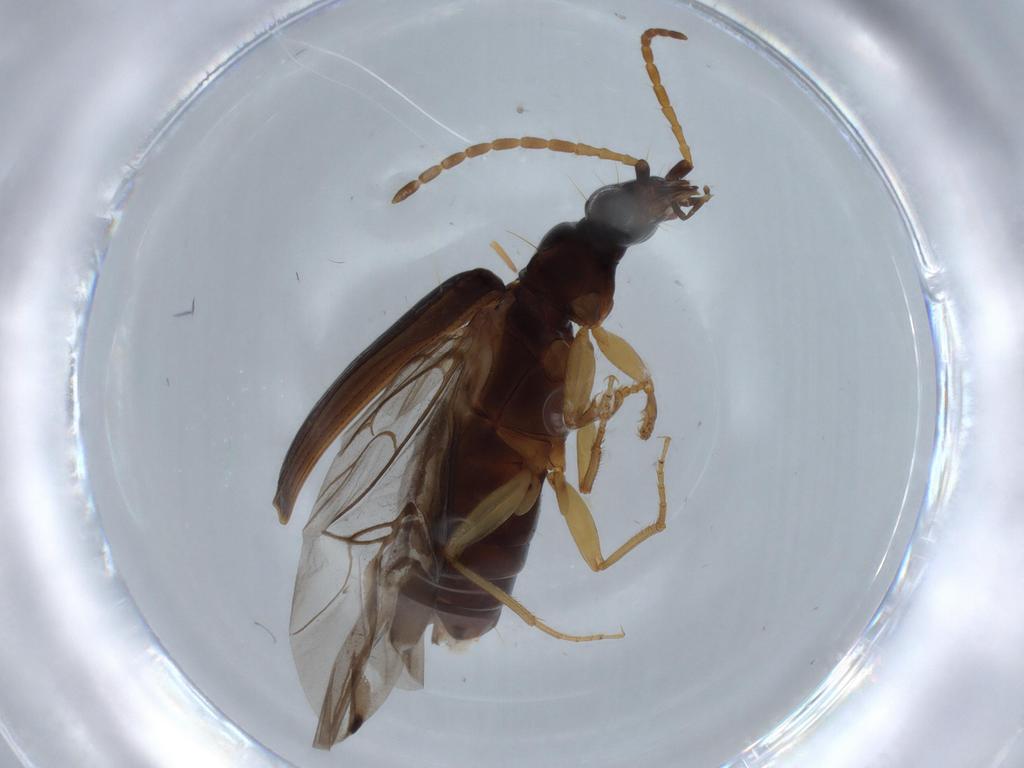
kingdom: Animalia
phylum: Arthropoda
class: Insecta
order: Coleoptera
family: Carabidae
